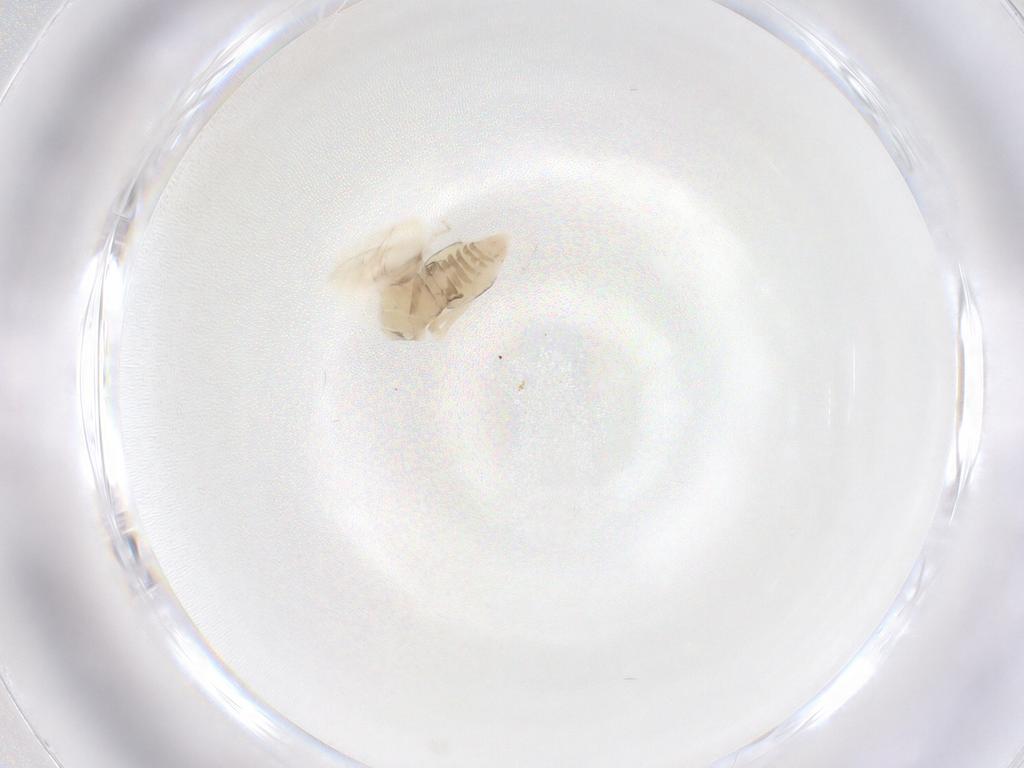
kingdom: Animalia
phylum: Arthropoda
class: Insecta
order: Hemiptera
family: Aleyrodidae
